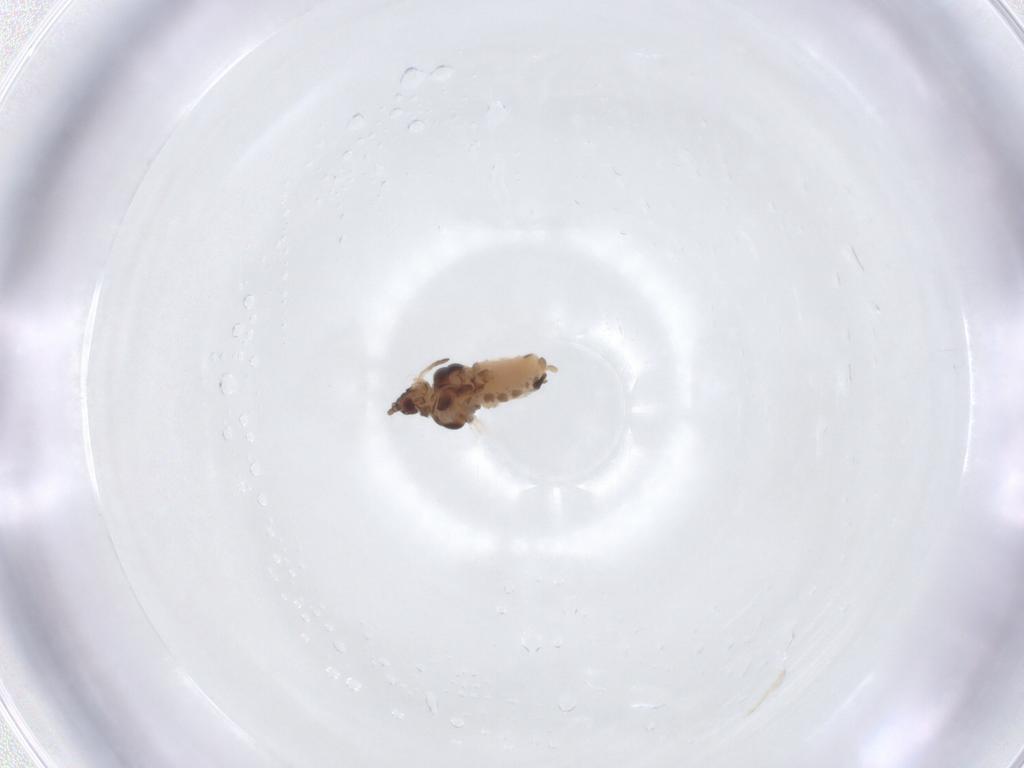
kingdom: Animalia
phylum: Arthropoda
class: Insecta
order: Hemiptera
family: Aphididae
